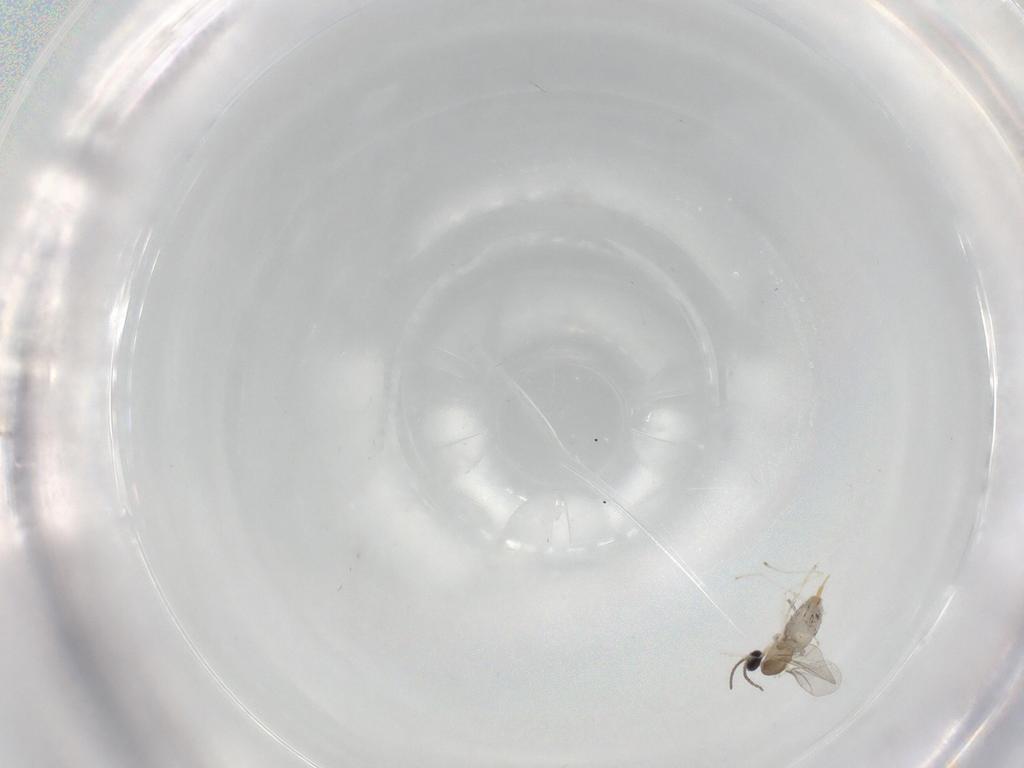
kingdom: Animalia
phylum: Arthropoda
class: Insecta
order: Diptera
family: Cecidomyiidae
